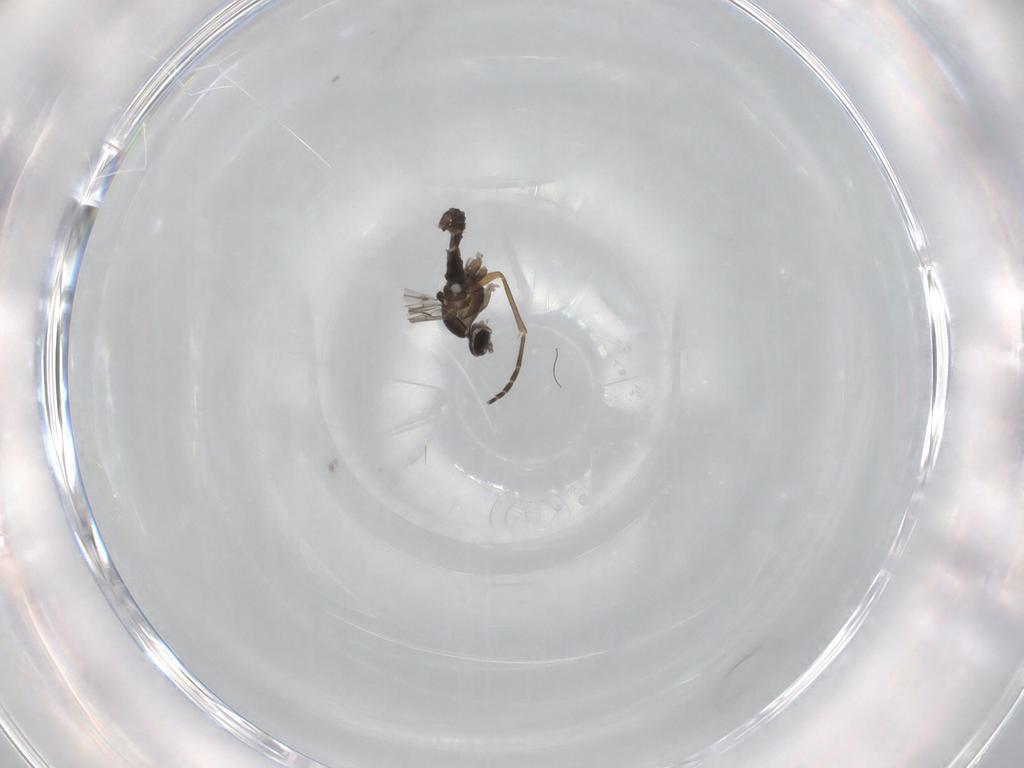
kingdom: Animalia
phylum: Arthropoda
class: Insecta
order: Diptera
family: Cecidomyiidae
